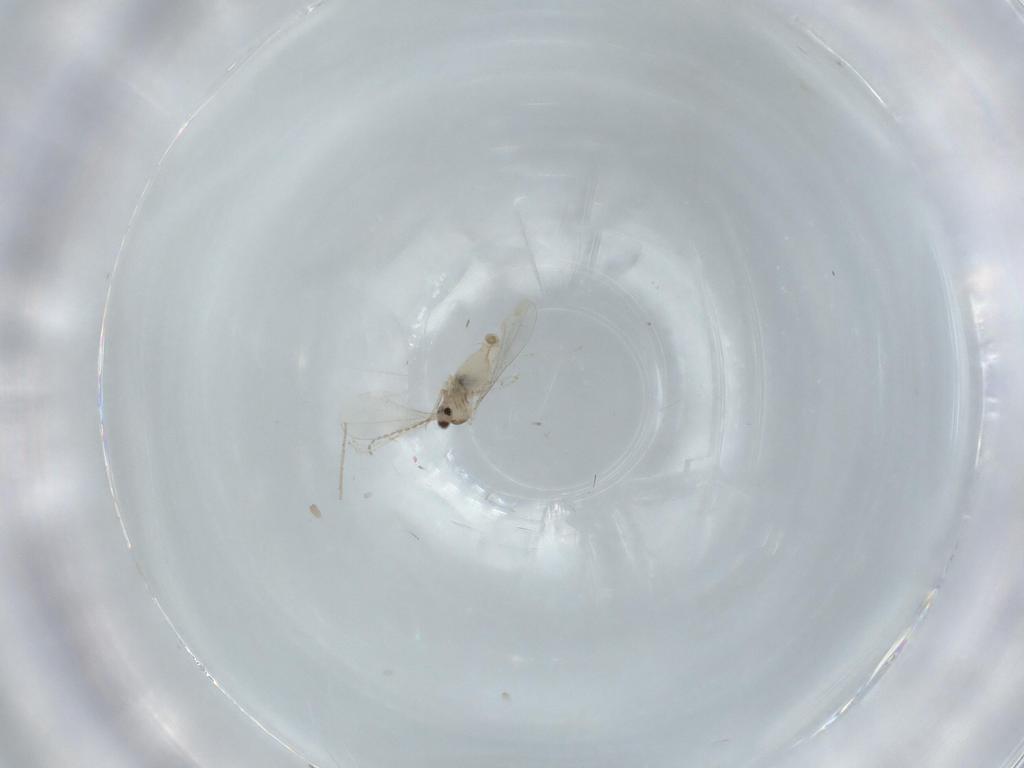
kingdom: Animalia
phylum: Arthropoda
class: Insecta
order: Diptera
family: Cecidomyiidae
